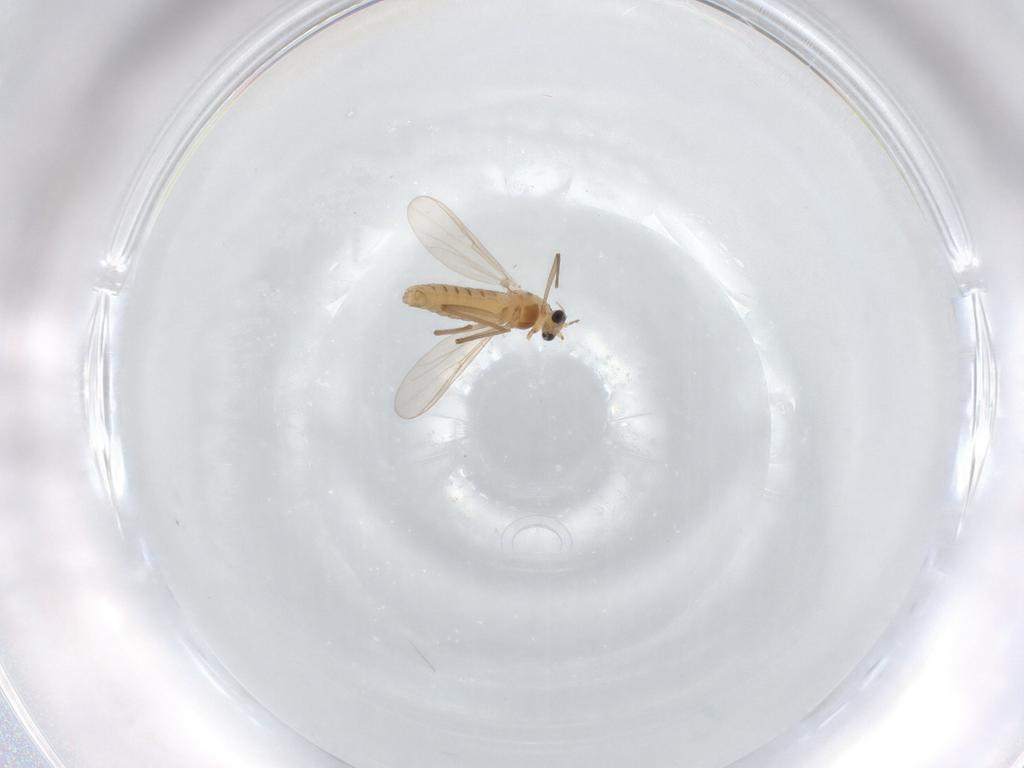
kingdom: Animalia
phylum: Arthropoda
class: Insecta
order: Diptera
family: Chironomidae
